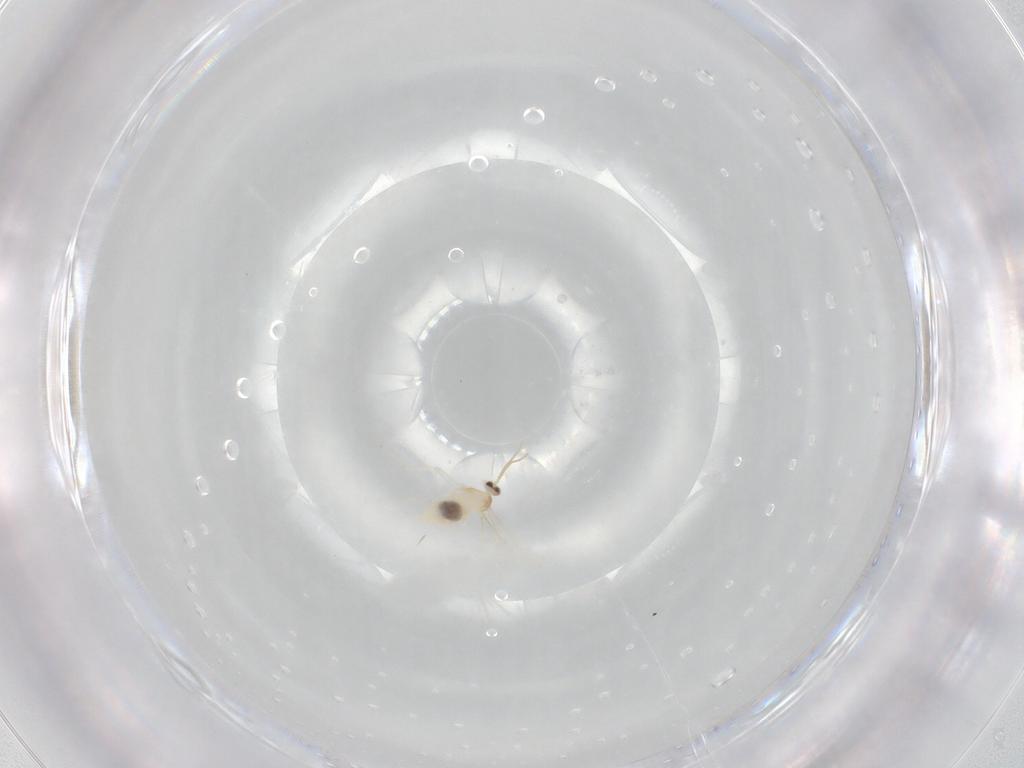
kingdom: Animalia
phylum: Arthropoda
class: Insecta
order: Diptera
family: Cecidomyiidae
